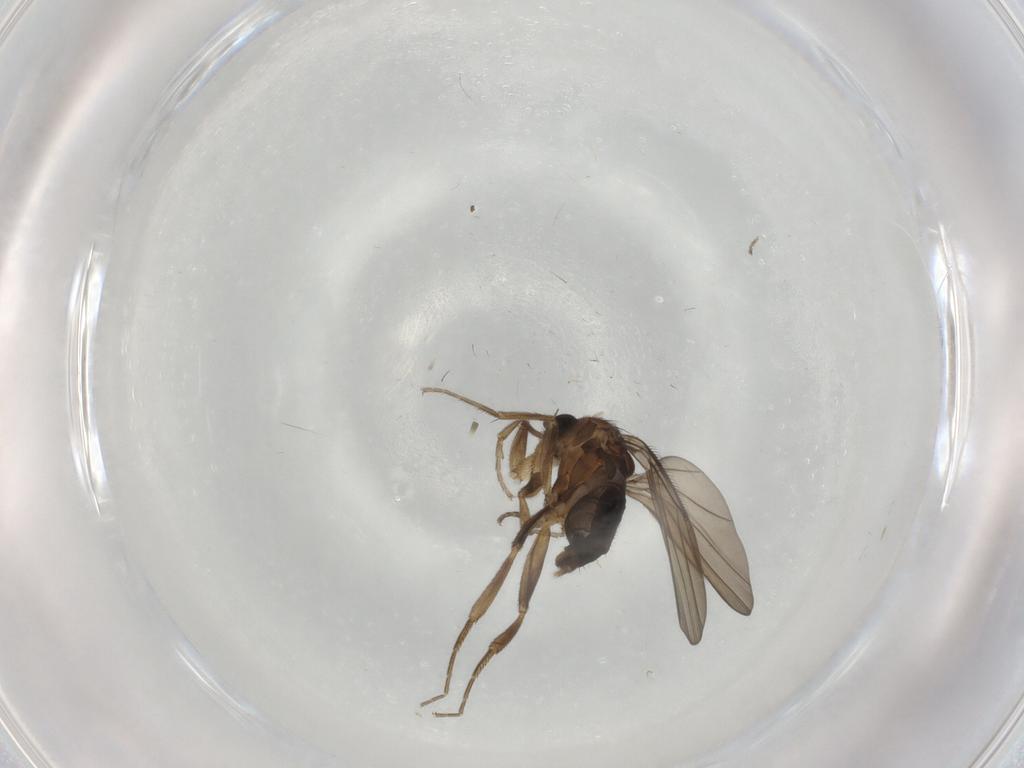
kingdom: Animalia
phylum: Arthropoda
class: Insecta
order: Diptera
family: Phoridae
